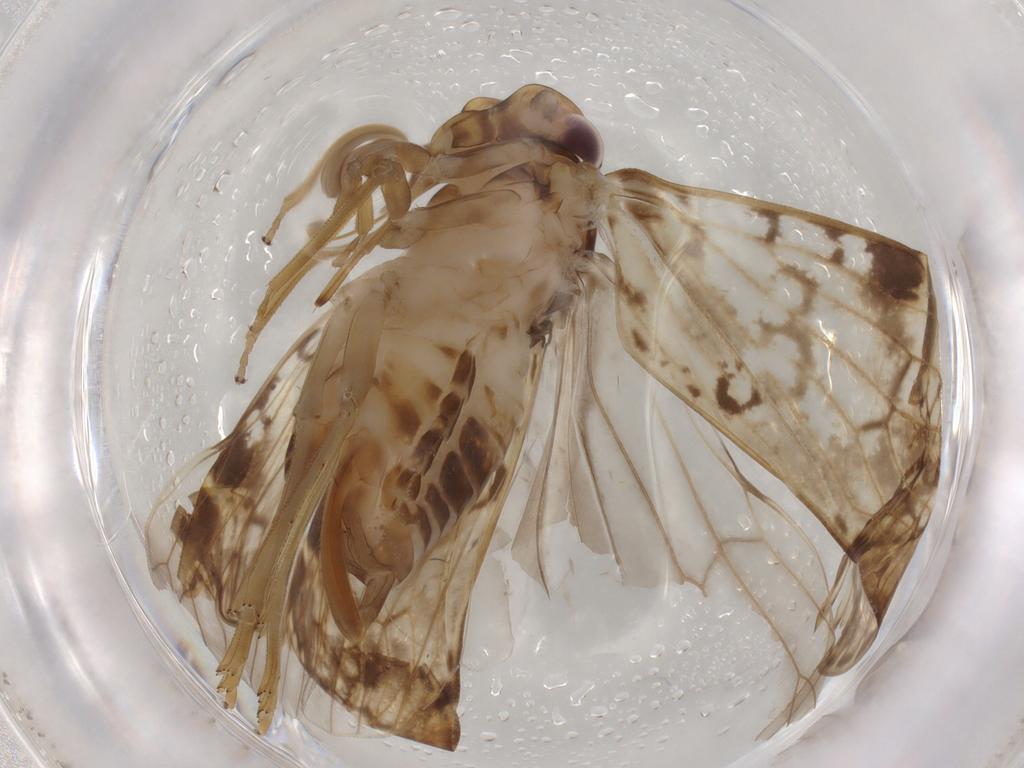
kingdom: Animalia
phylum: Arthropoda
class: Insecta
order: Hemiptera
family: Cixiidae
